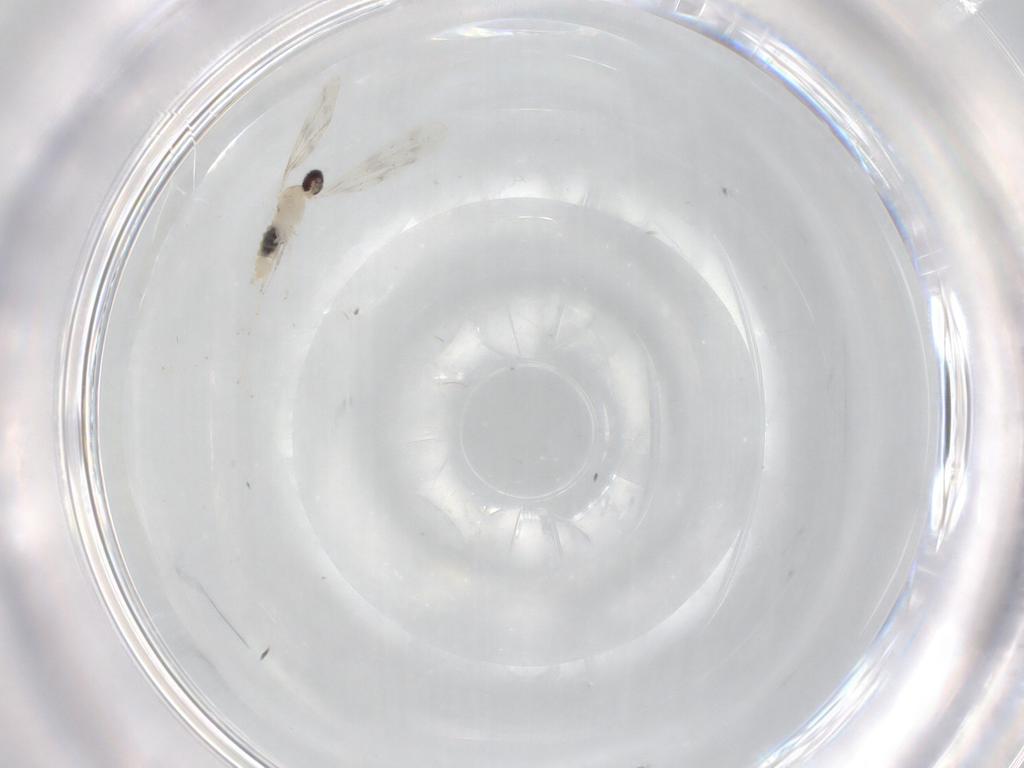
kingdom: Animalia
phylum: Arthropoda
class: Insecta
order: Diptera
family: Cecidomyiidae
